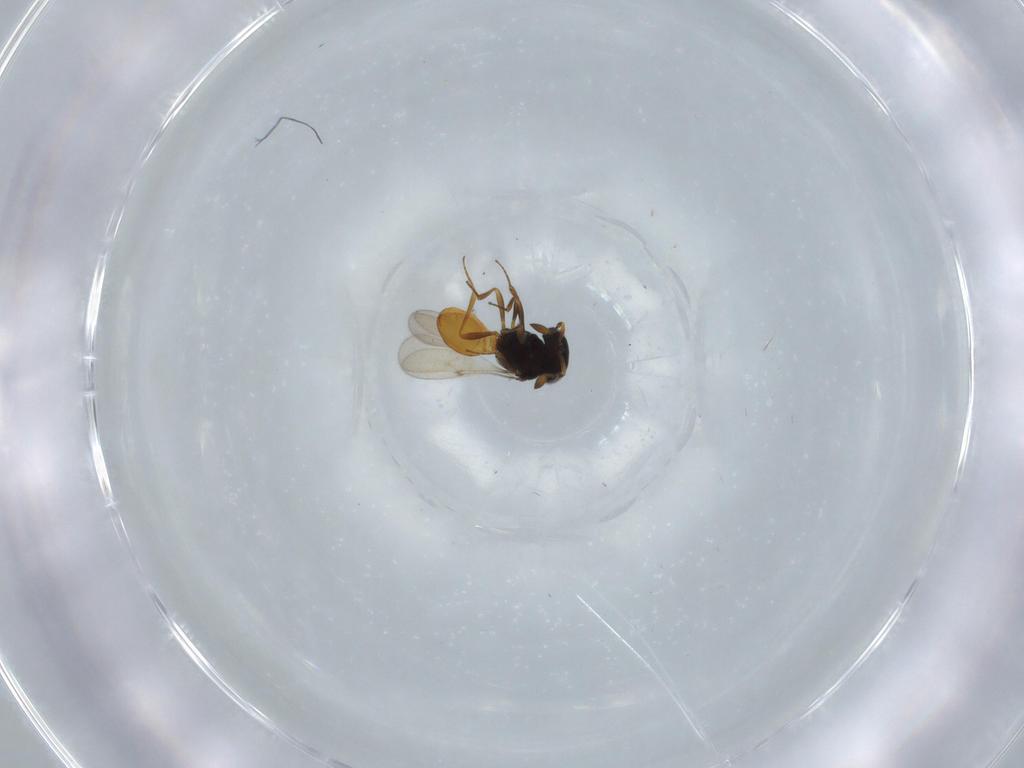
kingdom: Animalia
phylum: Arthropoda
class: Insecta
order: Hymenoptera
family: Scelionidae
